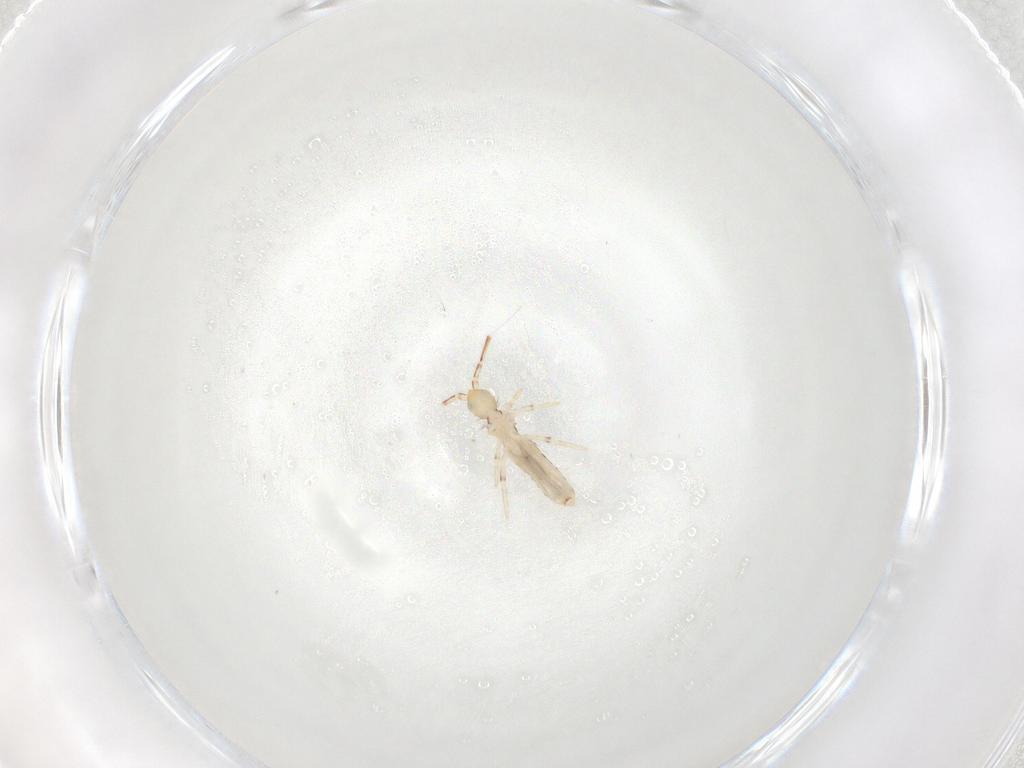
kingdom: Animalia
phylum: Arthropoda
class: Collembola
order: Entomobryomorpha
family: Entomobryidae
